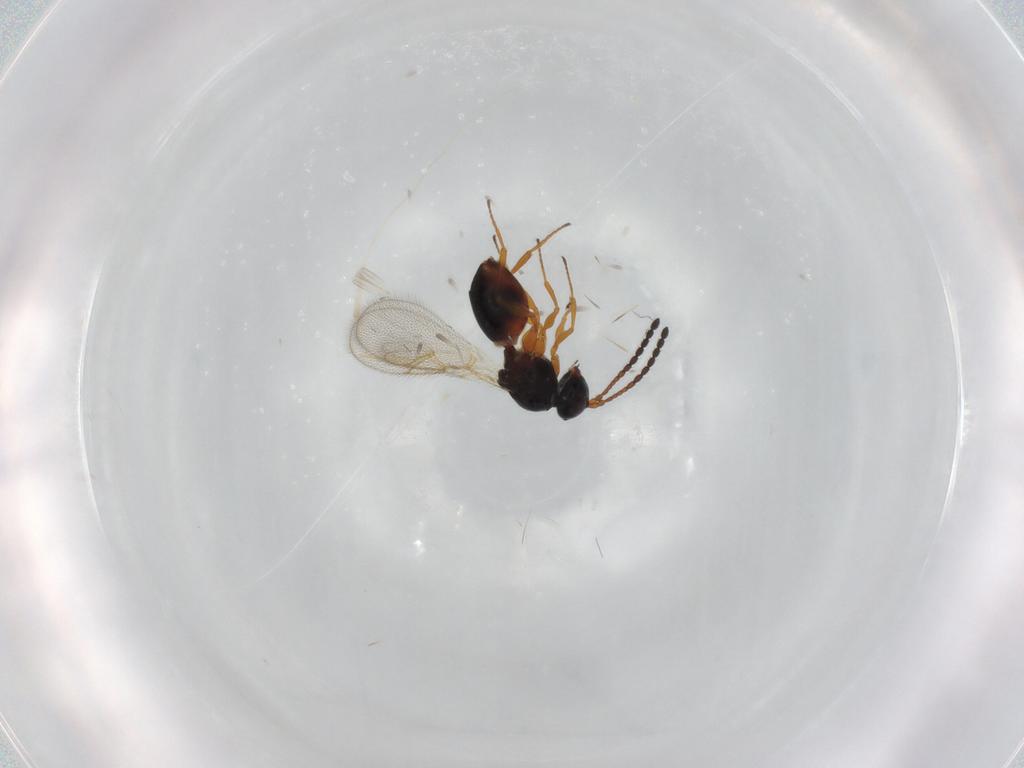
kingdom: Animalia
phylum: Arthropoda
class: Insecta
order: Hymenoptera
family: Figitidae
